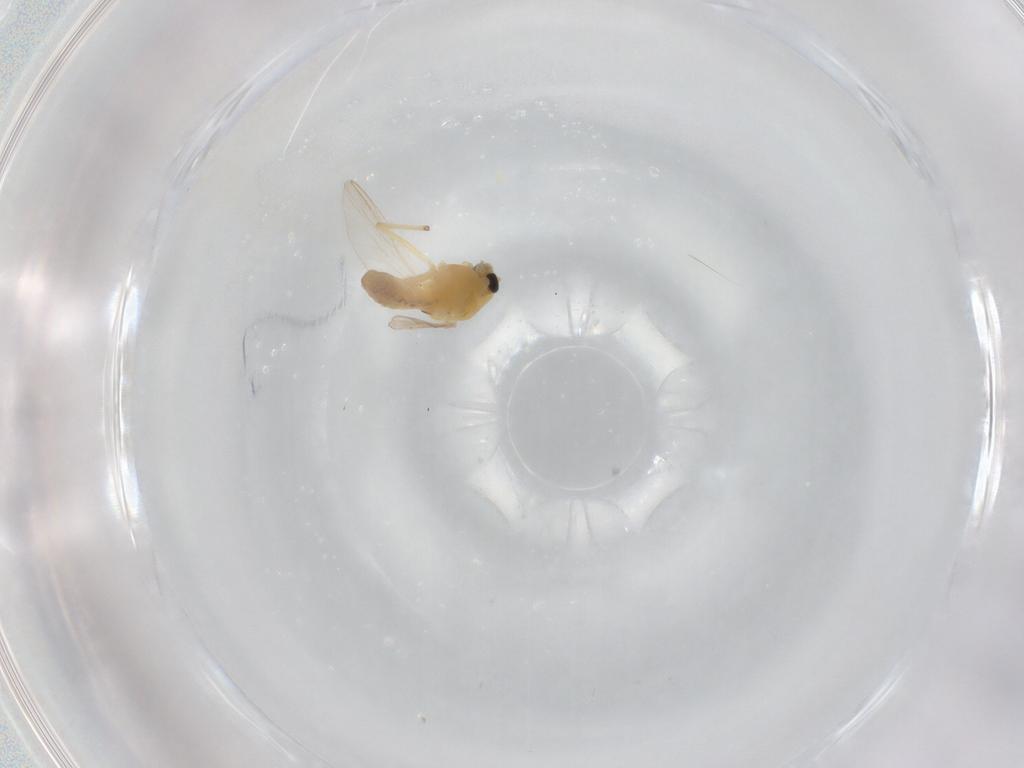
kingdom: Animalia
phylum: Arthropoda
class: Insecta
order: Diptera
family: Chironomidae
